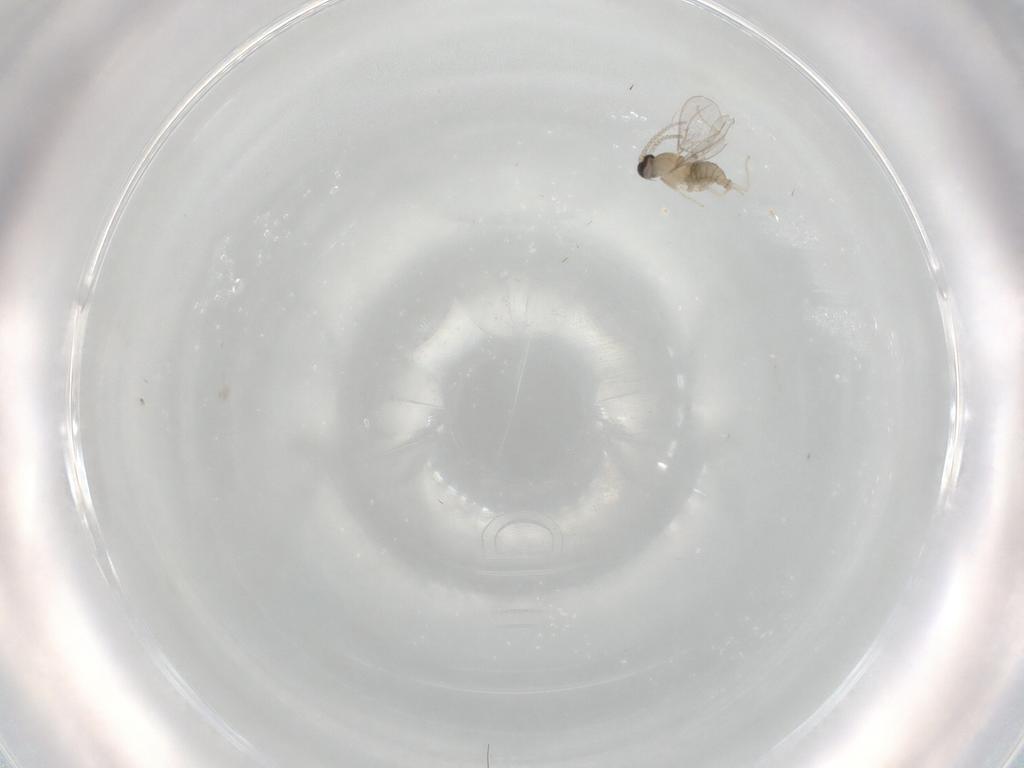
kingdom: Animalia
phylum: Arthropoda
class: Insecta
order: Diptera
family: Cecidomyiidae
